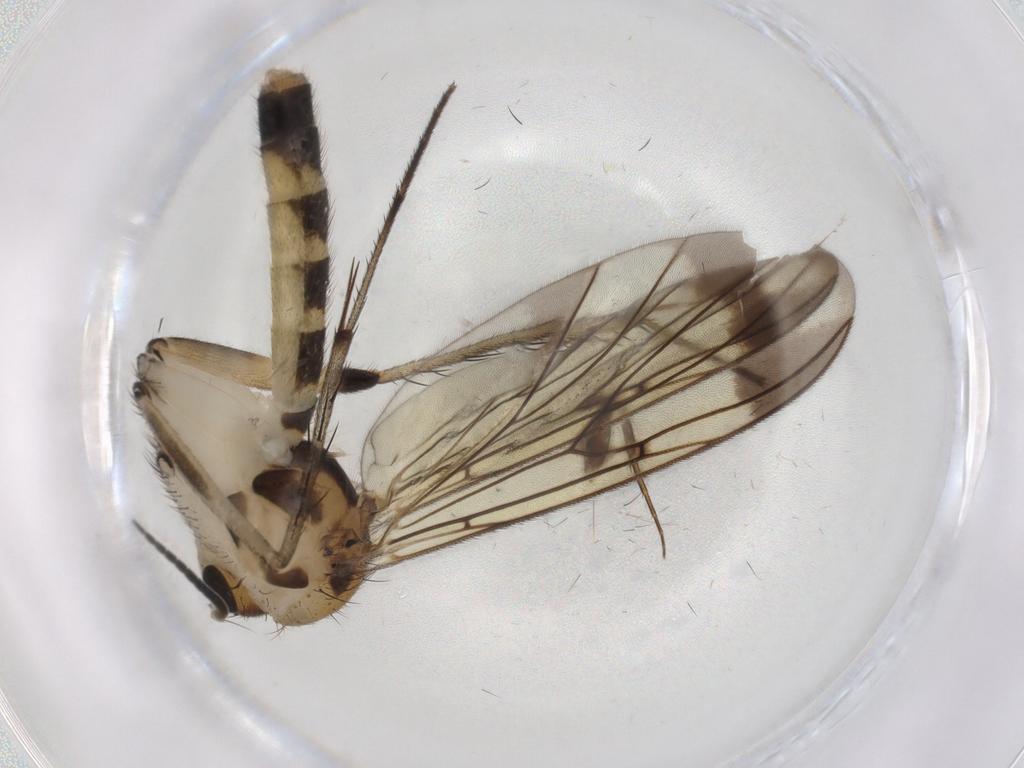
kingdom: Animalia
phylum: Arthropoda
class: Insecta
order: Diptera
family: Mycetophilidae
